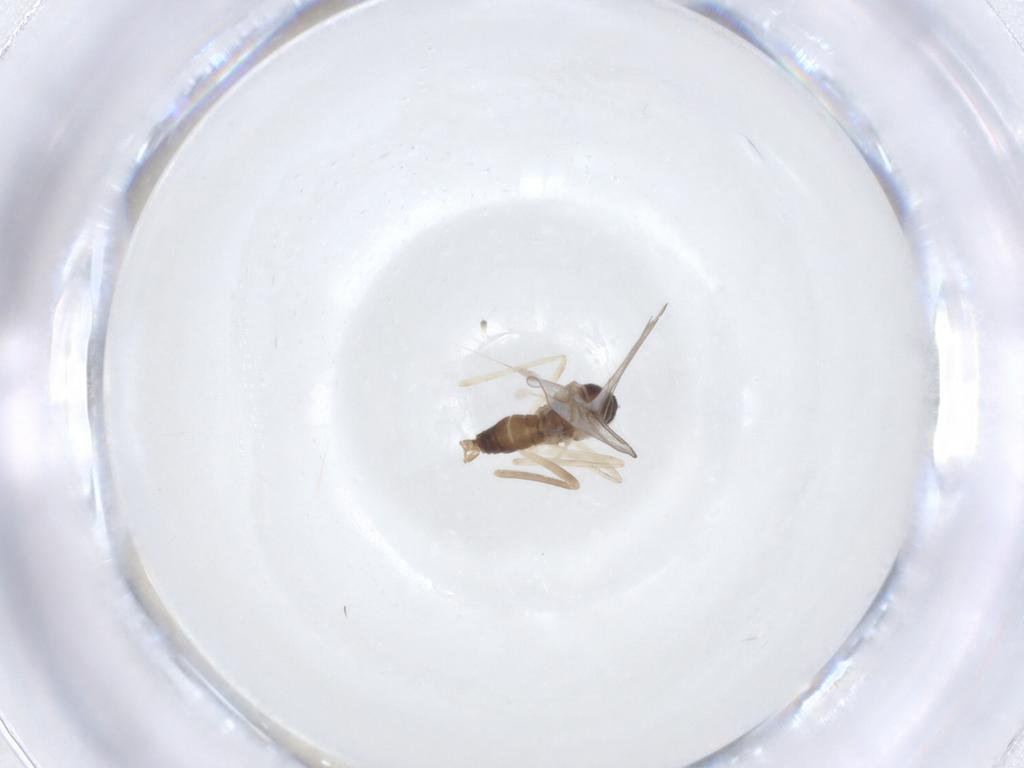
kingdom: Animalia
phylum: Arthropoda
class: Insecta
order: Diptera
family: Cecidomyiidae
